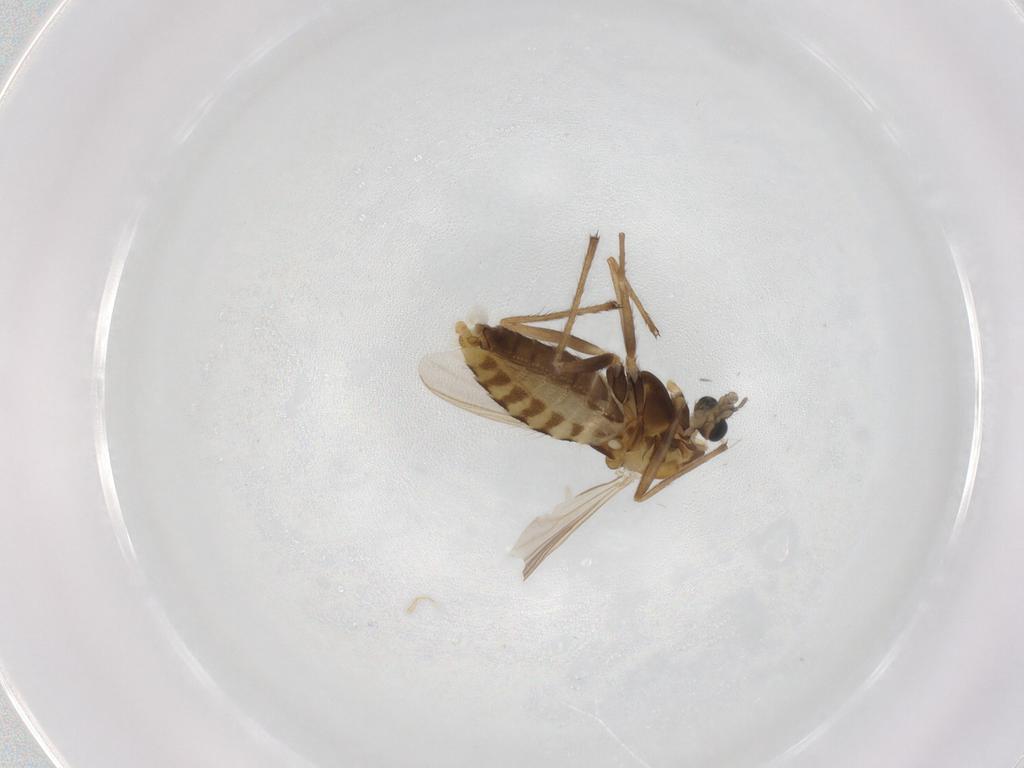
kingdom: Animalia
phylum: Arthropoda
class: Insecta
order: Diptera
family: Chironomidae
